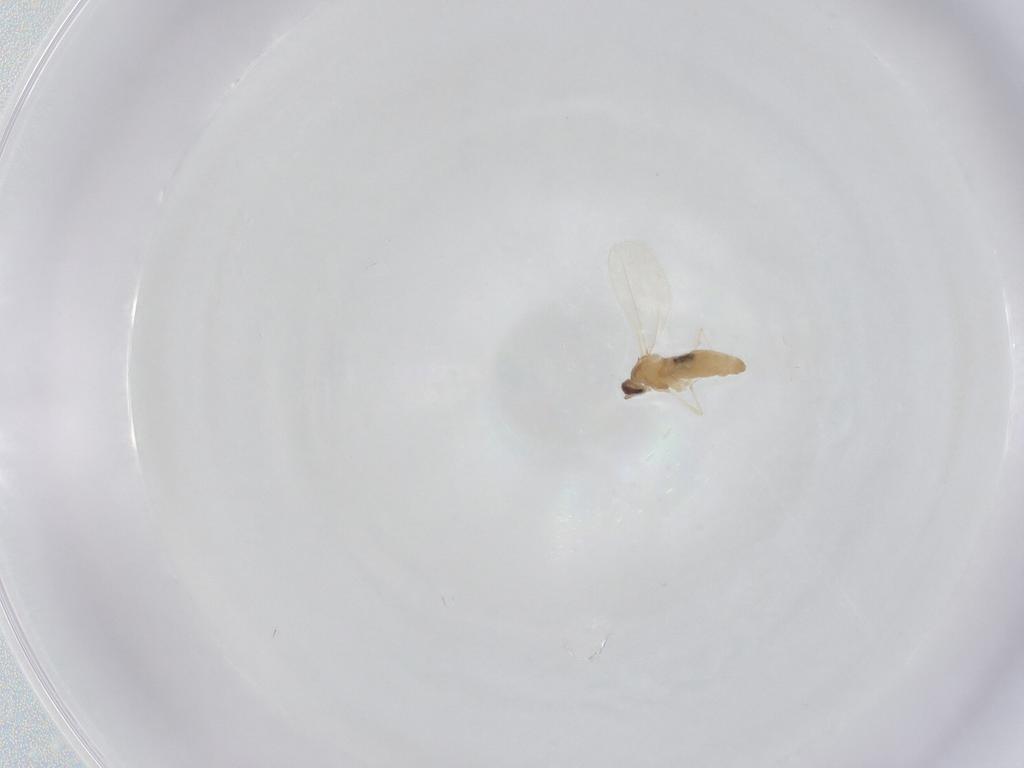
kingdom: Animalia
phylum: Arthropoda
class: Insecta
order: Diptera
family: Cecidomyiidae
